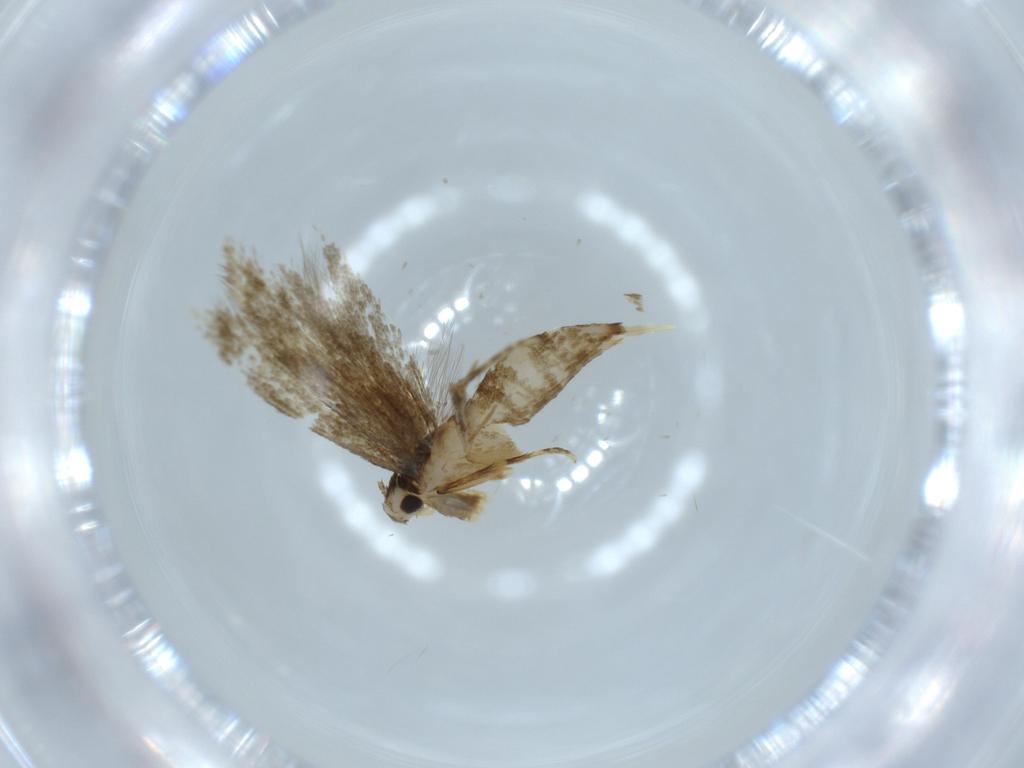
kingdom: Animalia
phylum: Arthropoda
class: Insecta
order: Lepidoptera
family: Tineidae
